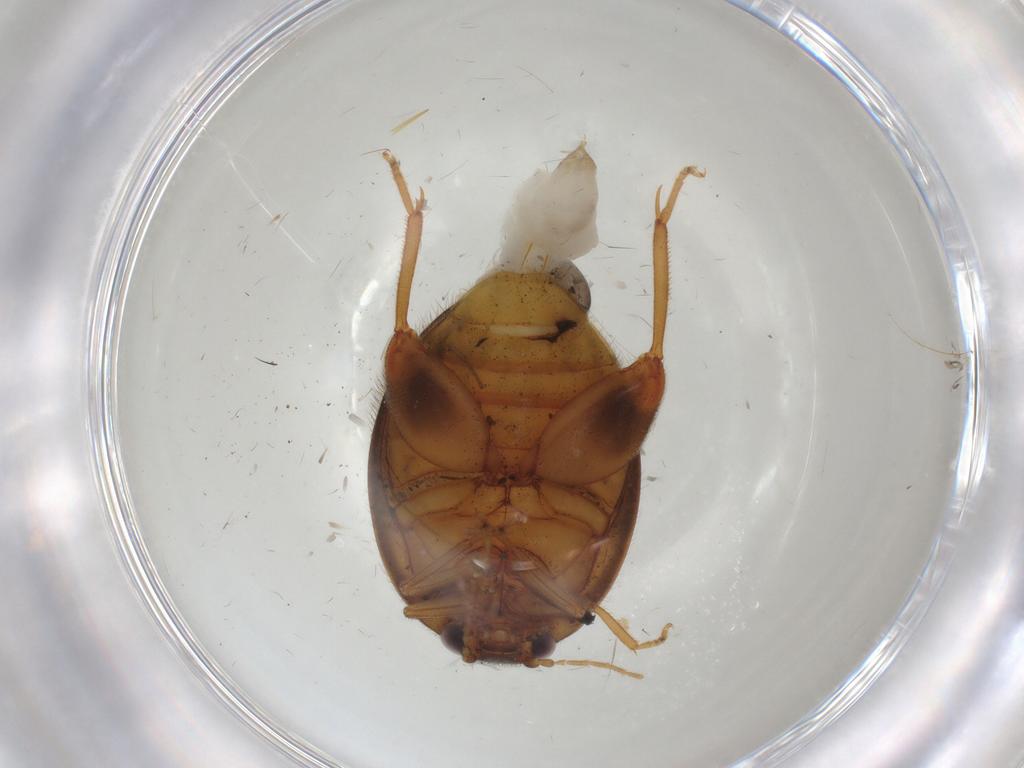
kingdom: Animalia
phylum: Arthropoda
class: Insecta
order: Coleoptera
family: Scirtidae
